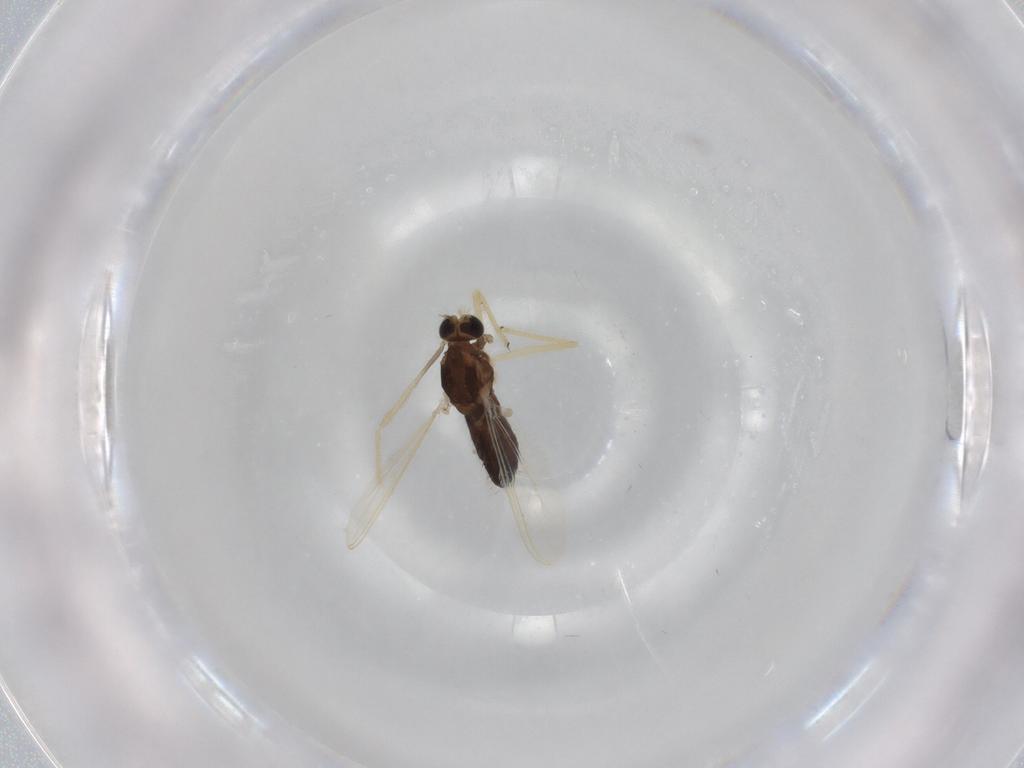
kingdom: Animalia
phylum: Arthropoda
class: Insecta
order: Diptera
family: Chironomidae
